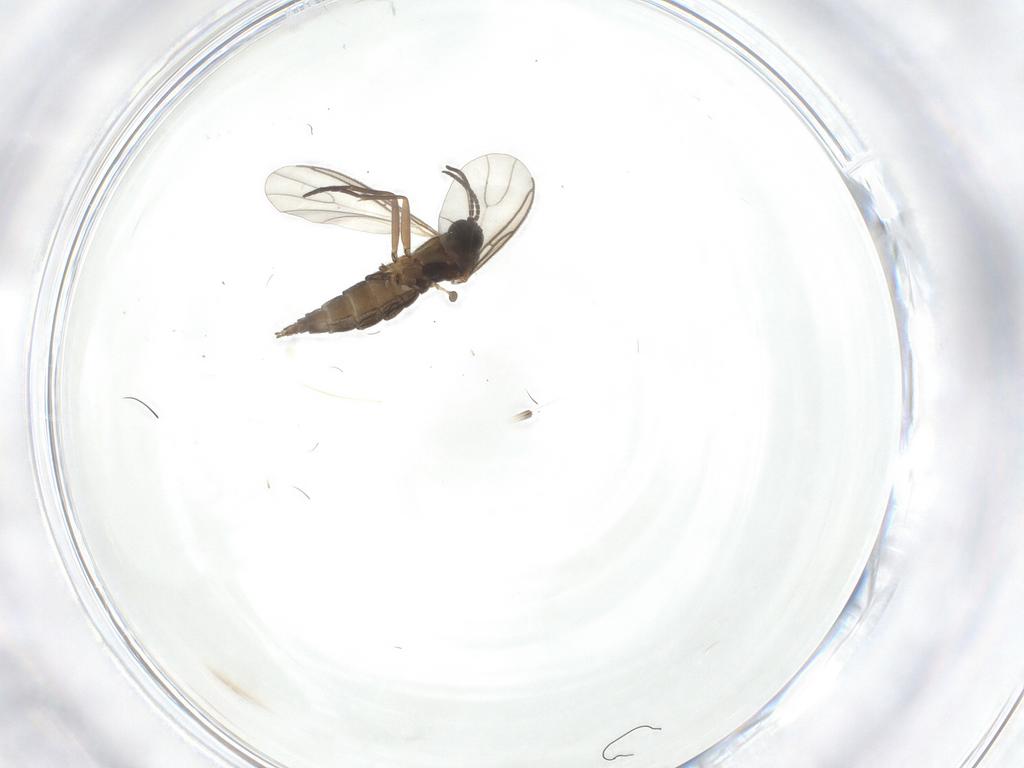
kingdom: Animalia
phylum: Arthropoda
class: Insecta
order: Diptera
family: Sciaridae
